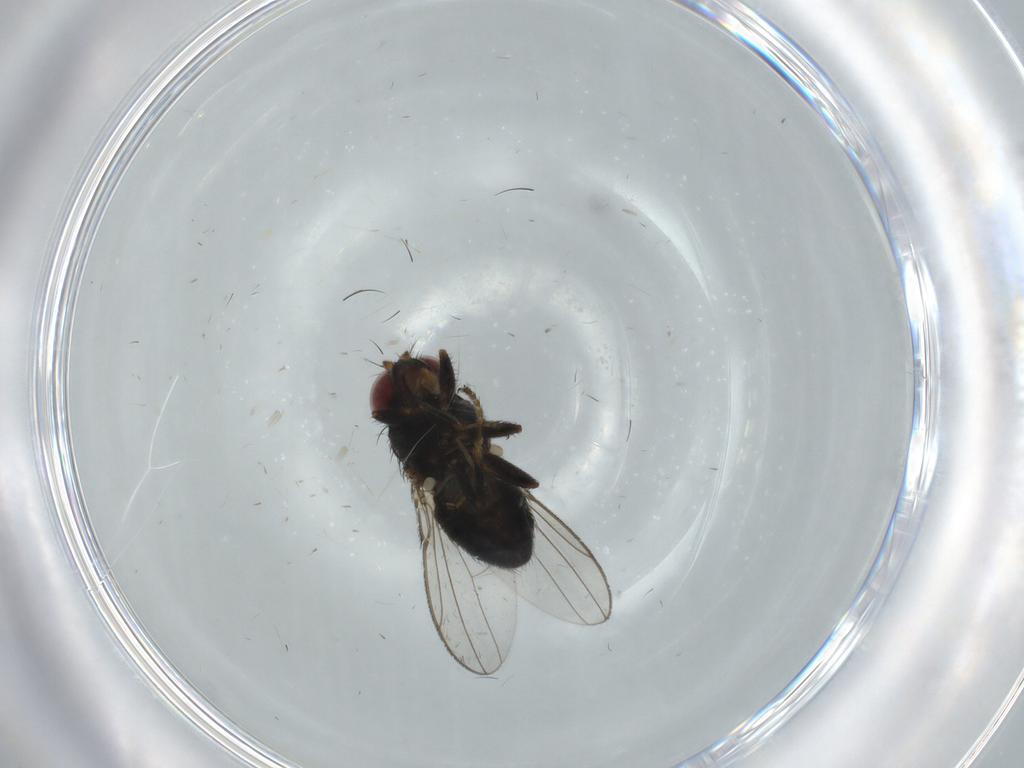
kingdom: Animalia
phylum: Arthropoda
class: Insecta
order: Diptera
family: Ephydridae
